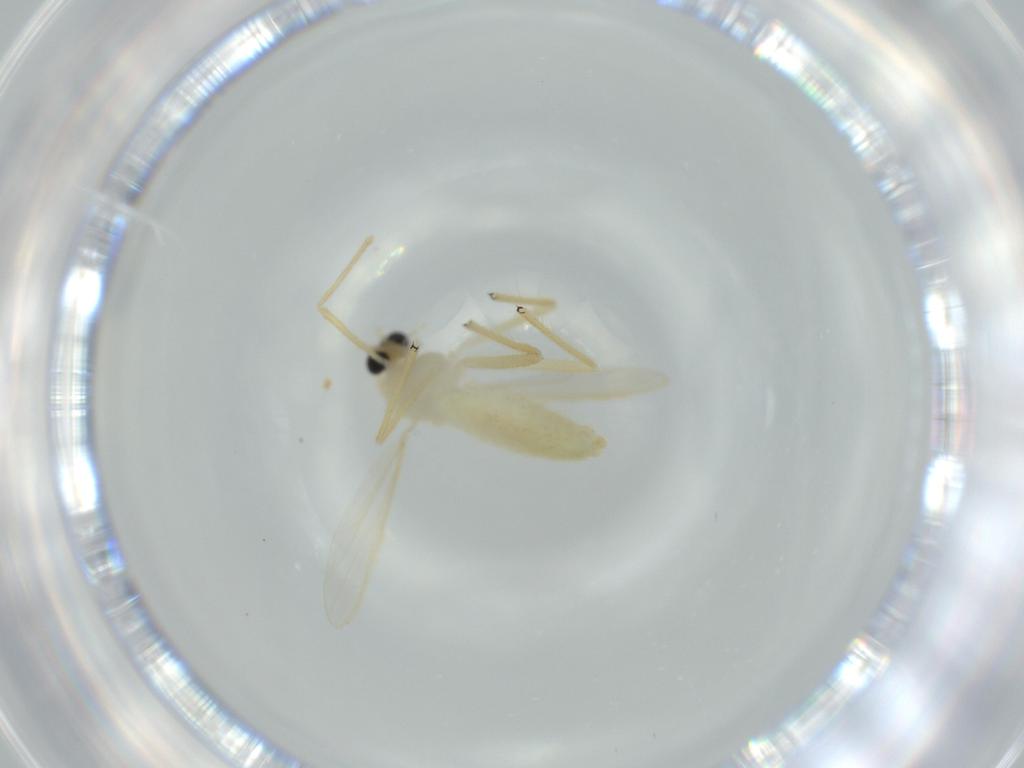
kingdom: Animalia
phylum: Arthropoda
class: Insecta
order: Diptera
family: Chironomidae
